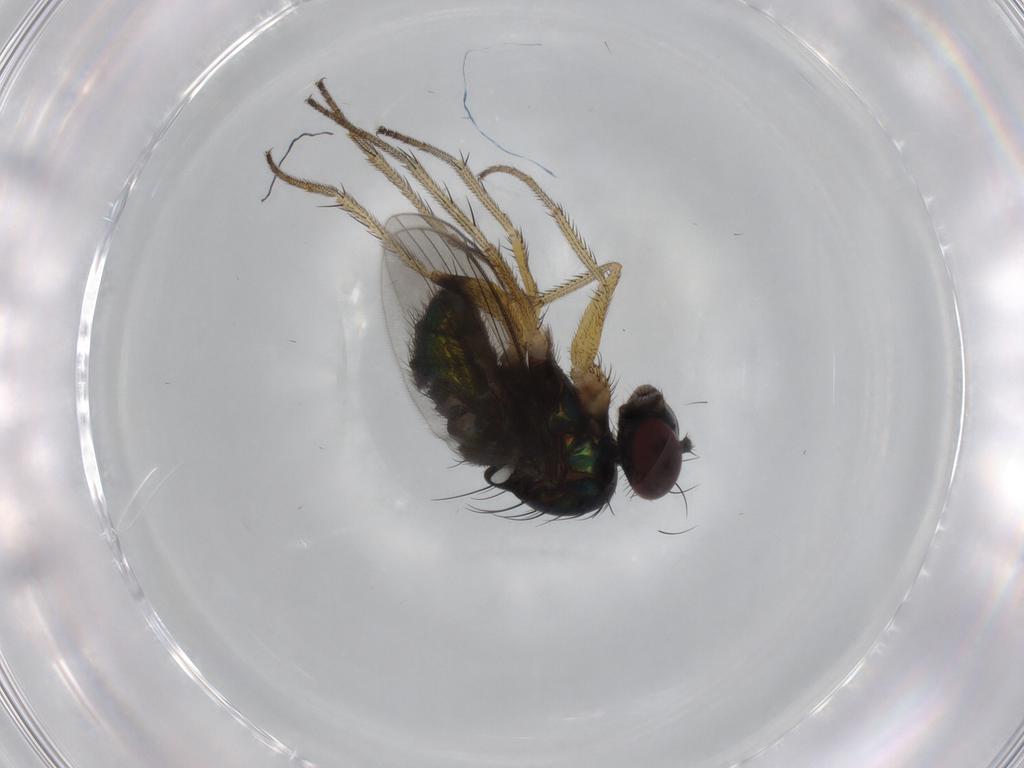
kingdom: Animalia
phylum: Arthropoda
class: Insecta
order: Diptera
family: Dolichopodidae
